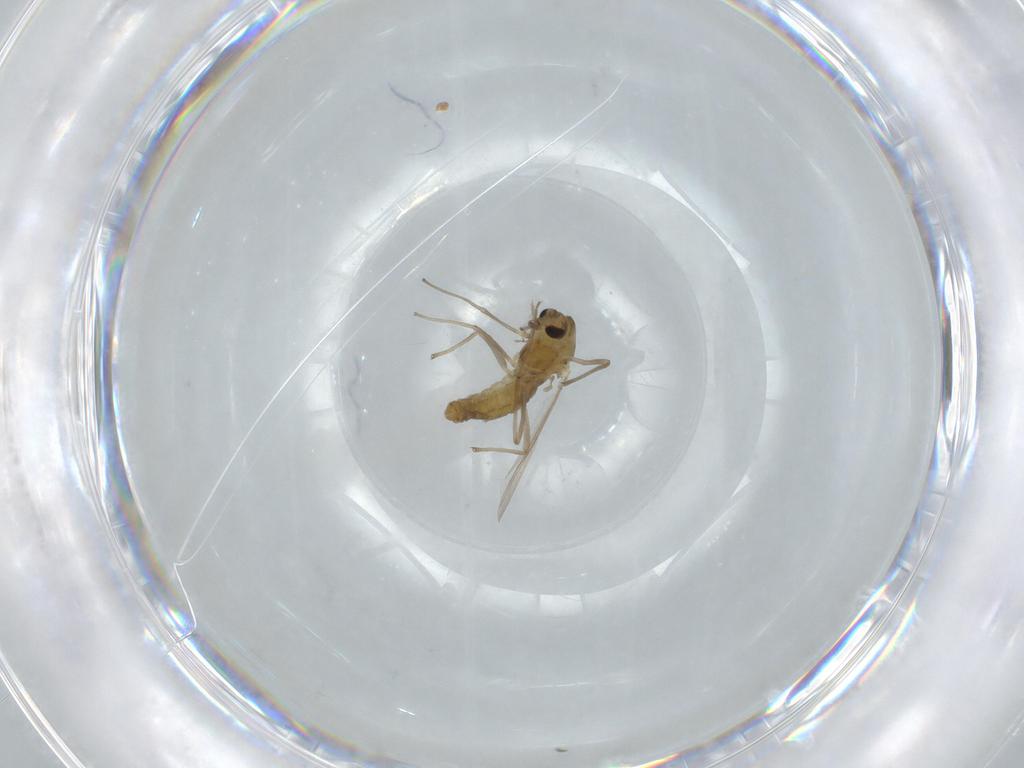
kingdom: Animalia
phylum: Arthropoda
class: Insecta
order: Diptera
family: Chironomidae
